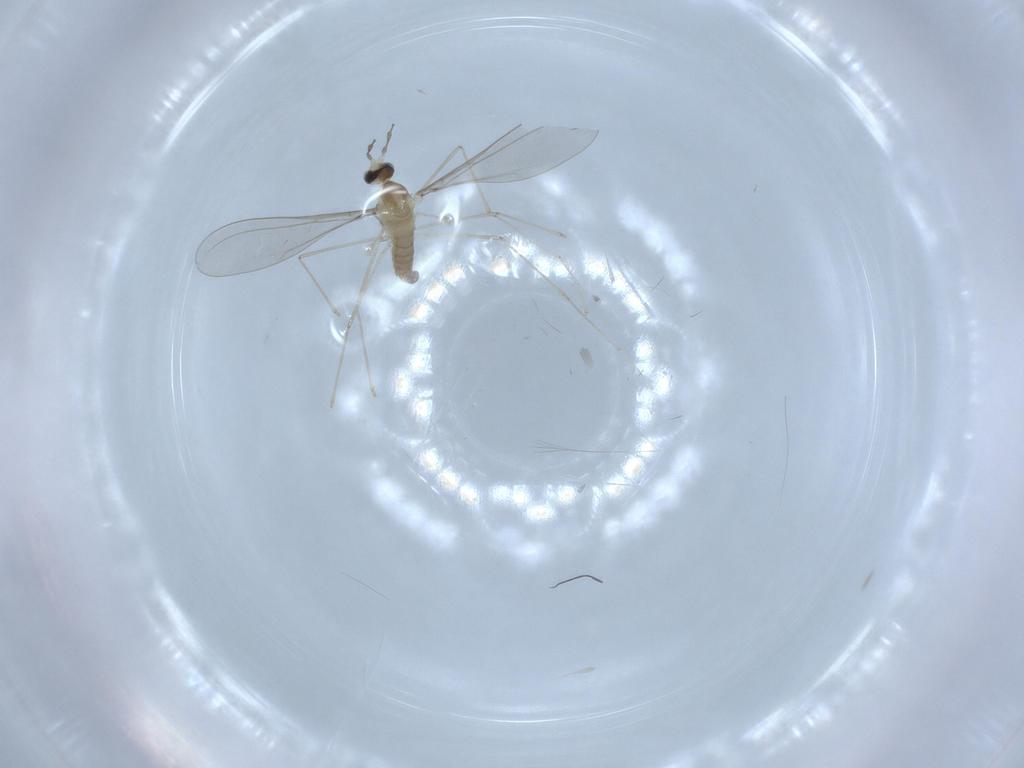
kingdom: Animalia
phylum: Arthropoda
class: Insecta
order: Diptera
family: Cecidomyiidae
